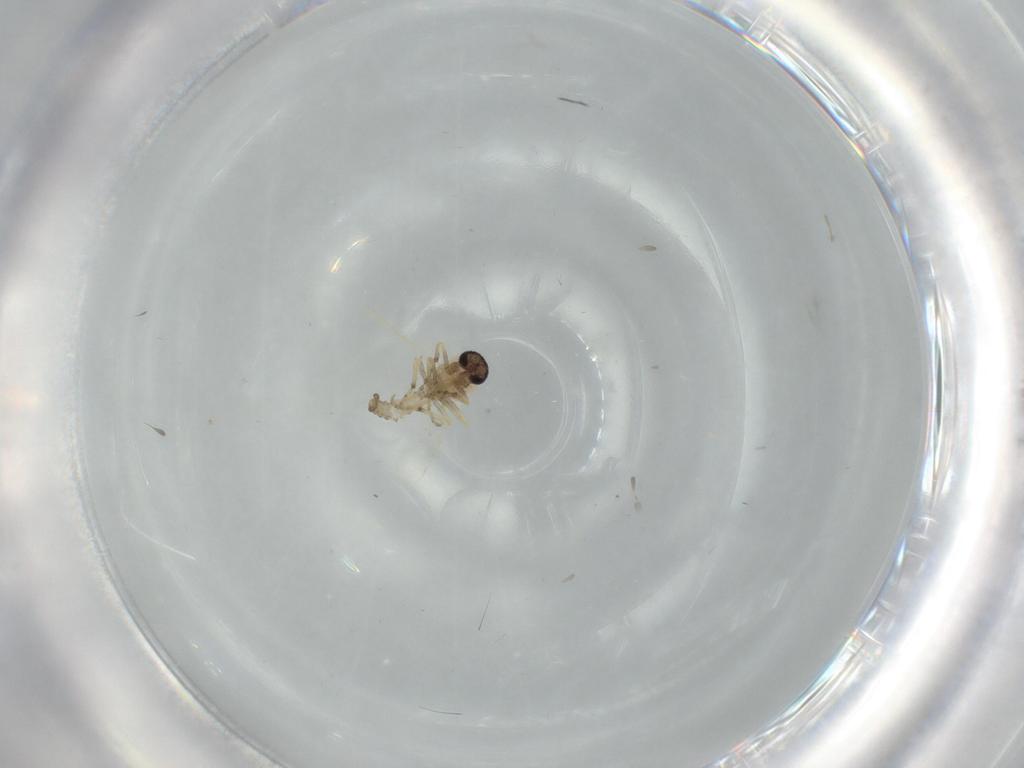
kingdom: Animalia
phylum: Arthropoda
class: Insecta
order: Diptera
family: Ceratopogonidae
